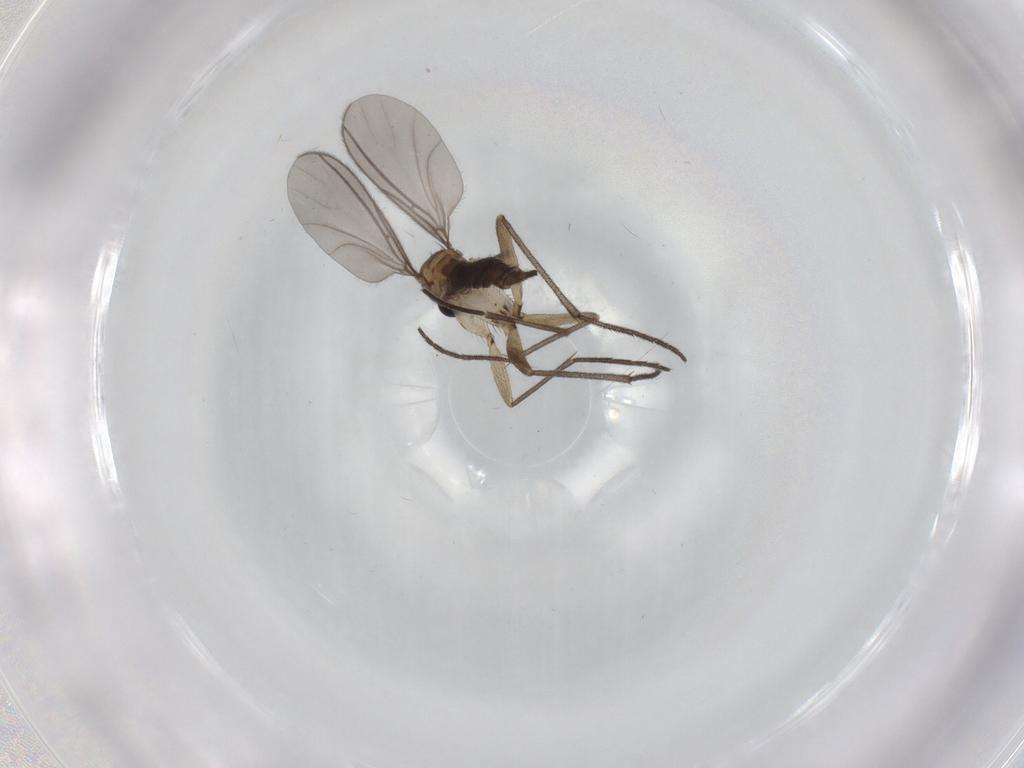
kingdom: Animalia
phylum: Arthropoda
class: Insecta
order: Diptera
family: Sciaridae
